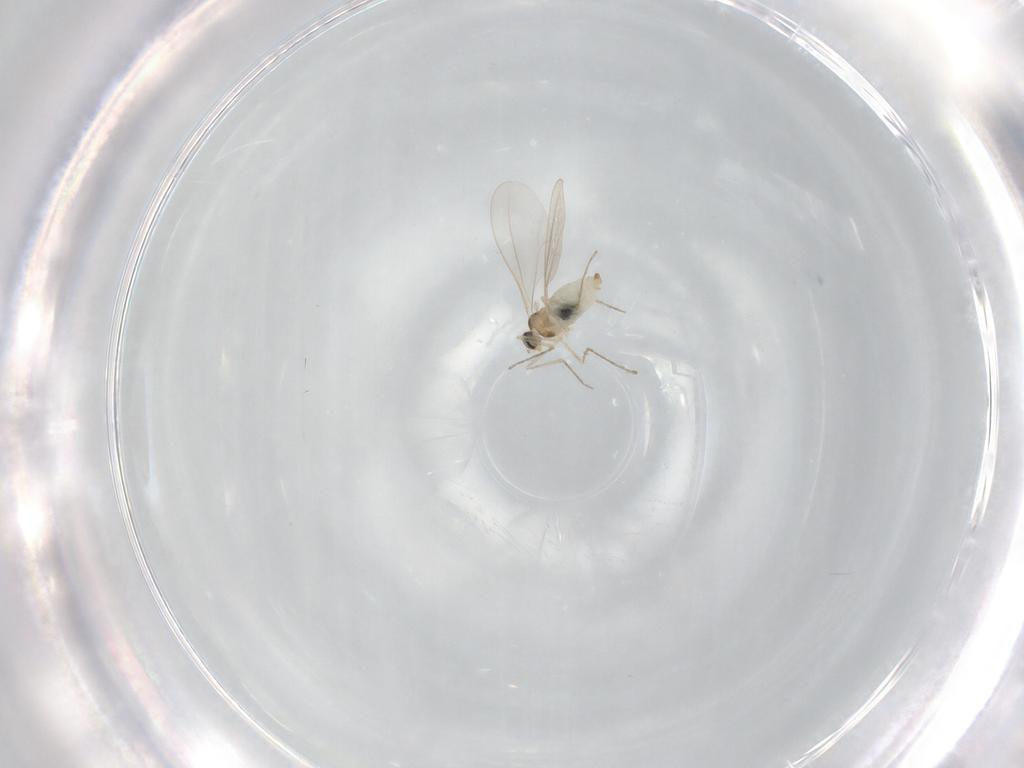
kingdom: Animalia
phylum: Arthropoda
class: Insecta
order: Diptera
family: Cecidomyiidae
